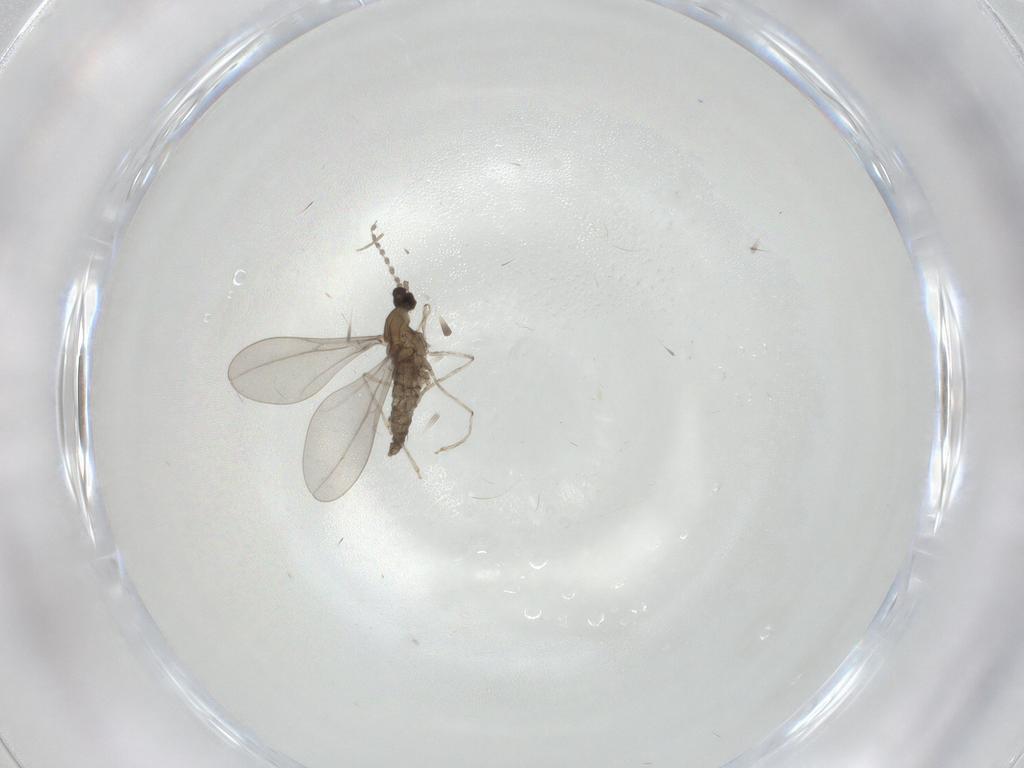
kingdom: Animalia
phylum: Arthropoda
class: Insecta
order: Diptera
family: Cecidomyiidae
